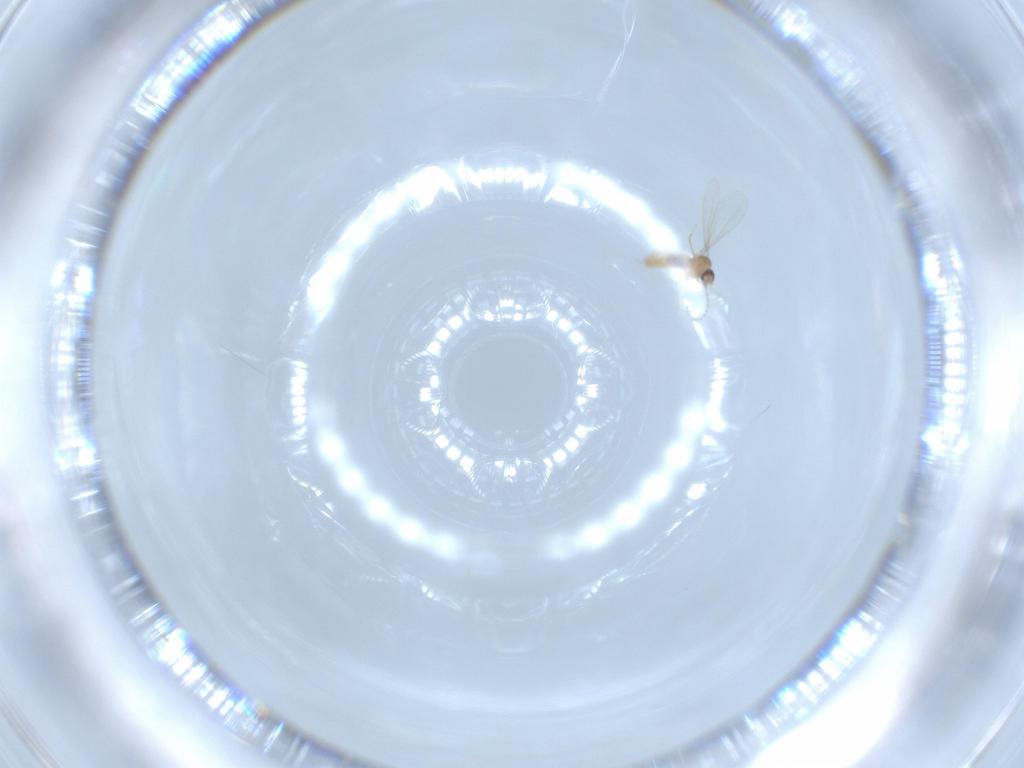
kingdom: Animalia
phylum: Arthropoda
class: Insecta
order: Diptera
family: Cecidomyiidae
